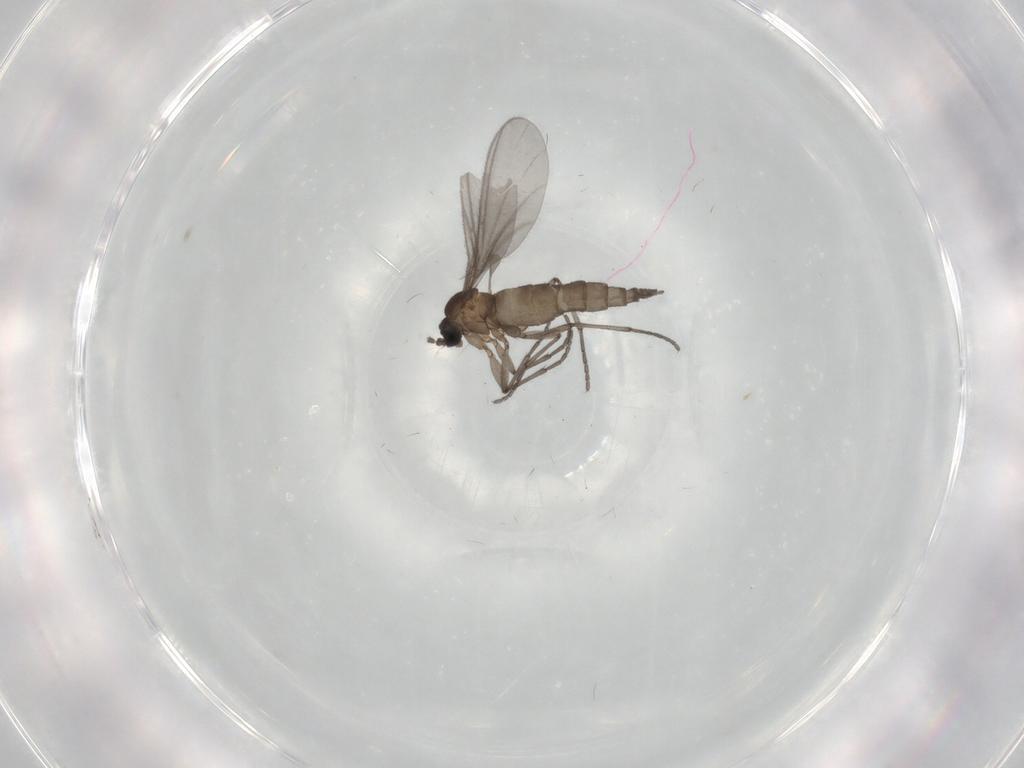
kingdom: Animalia
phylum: Arthropoda
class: Insecta
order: Diptera
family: Sciaridae
